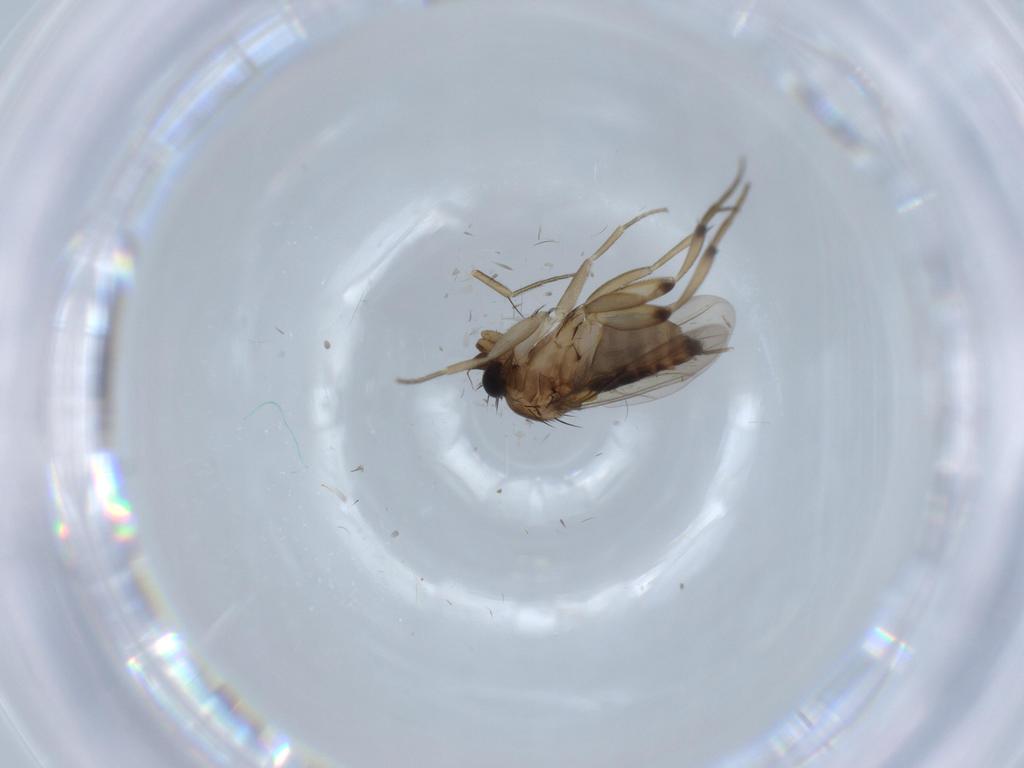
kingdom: Animalia
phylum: Arthropoda
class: Insecta
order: Diptera
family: Phoridae
